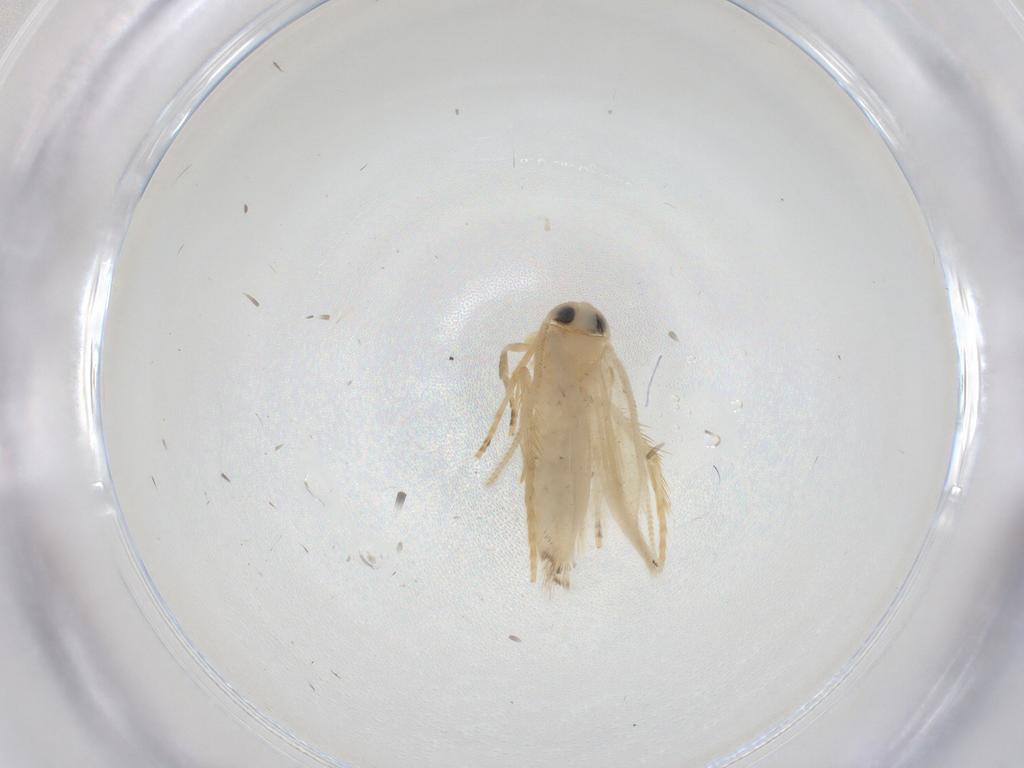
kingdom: Animalia
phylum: Arthropoda
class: Insecta
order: Lepidoptera
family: Opostegidae
